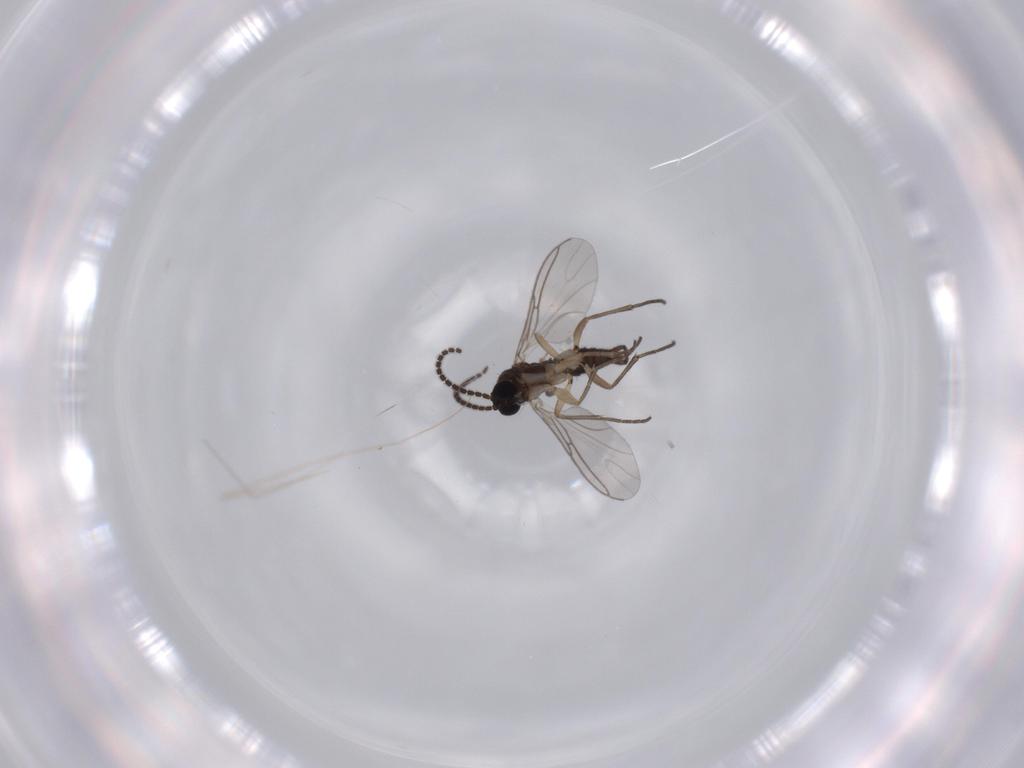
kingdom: Animalia
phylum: Arthropoda
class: Insecta
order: Diptera
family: Sciaridae
